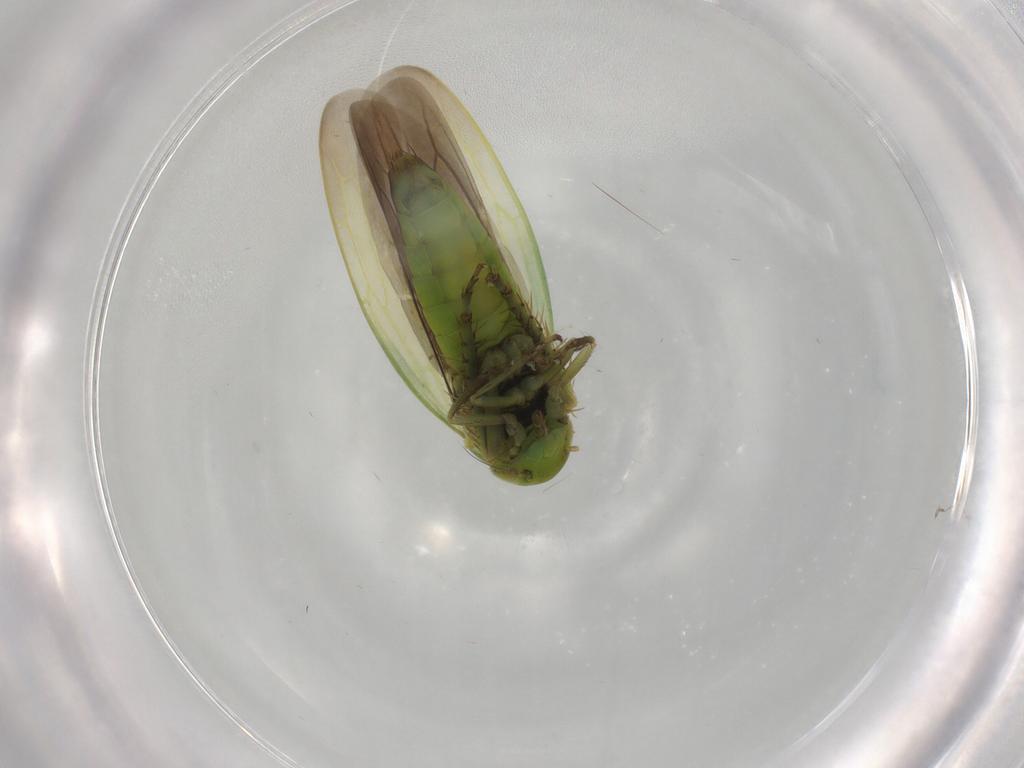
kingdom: Animalia
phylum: Arthropoda
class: Insecta
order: Hemiptera
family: Cicadellidae
